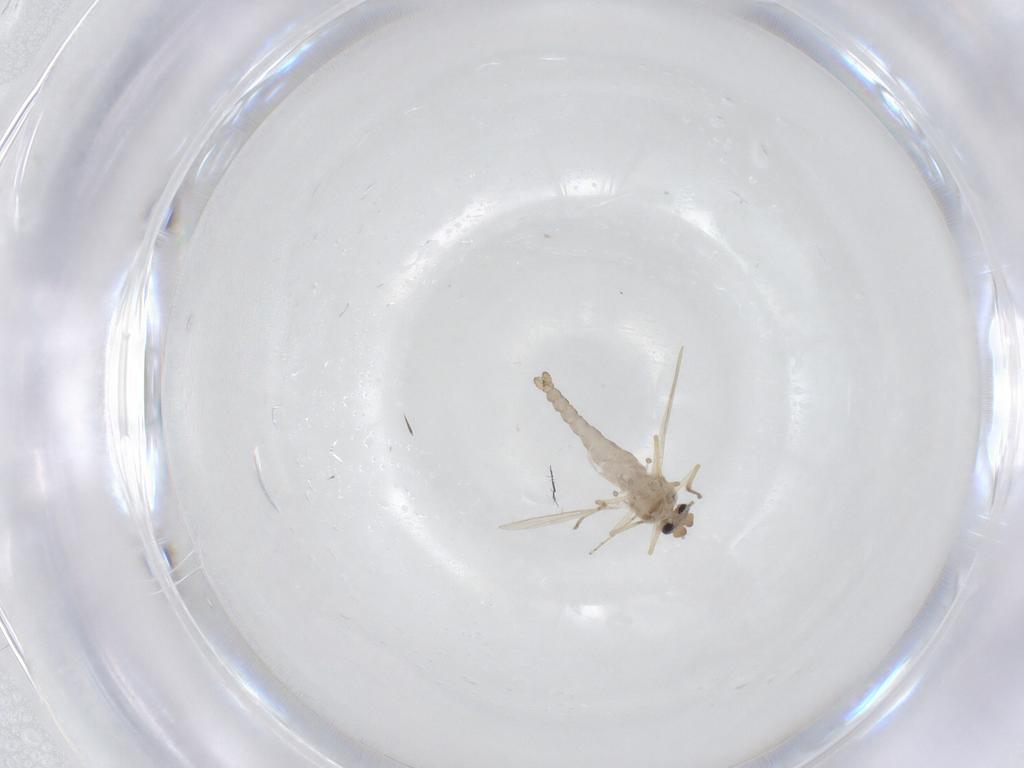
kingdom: Animalia
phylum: Arthropoda
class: Insecta
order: Diptera
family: Ceratopogonidae
